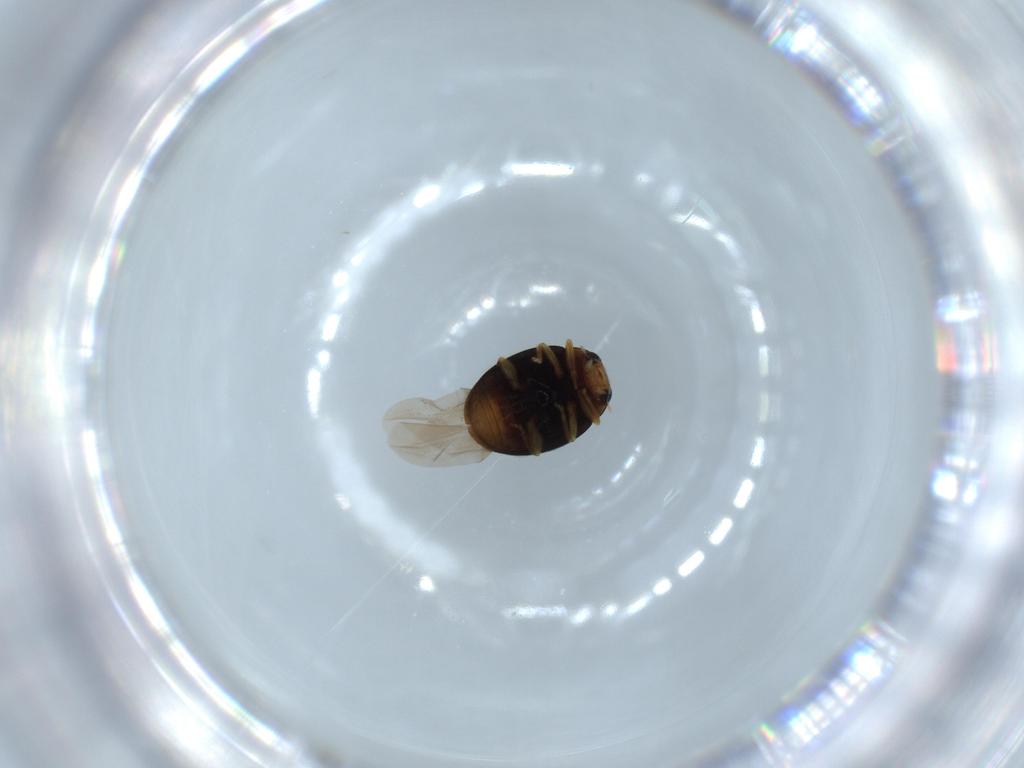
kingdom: Animalia
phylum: Arthropoda
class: Insecta
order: Coleoptera
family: Coccinellidae
